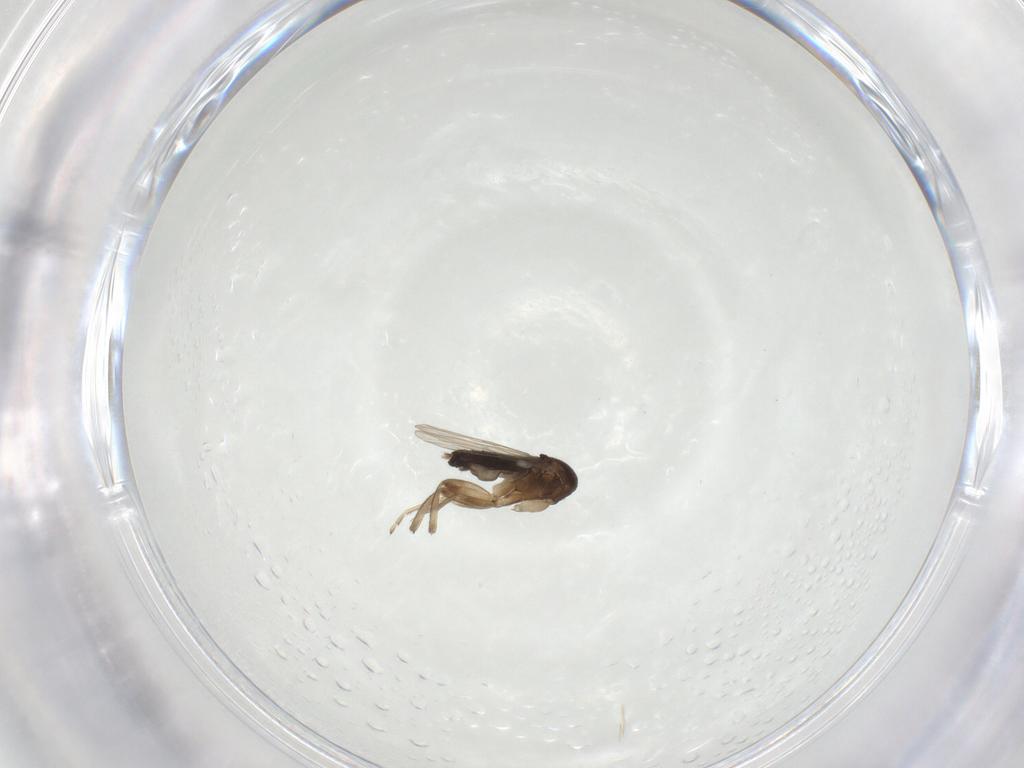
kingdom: Animalia
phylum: Arthropoda
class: Insecta
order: Diptera
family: Phoridae
